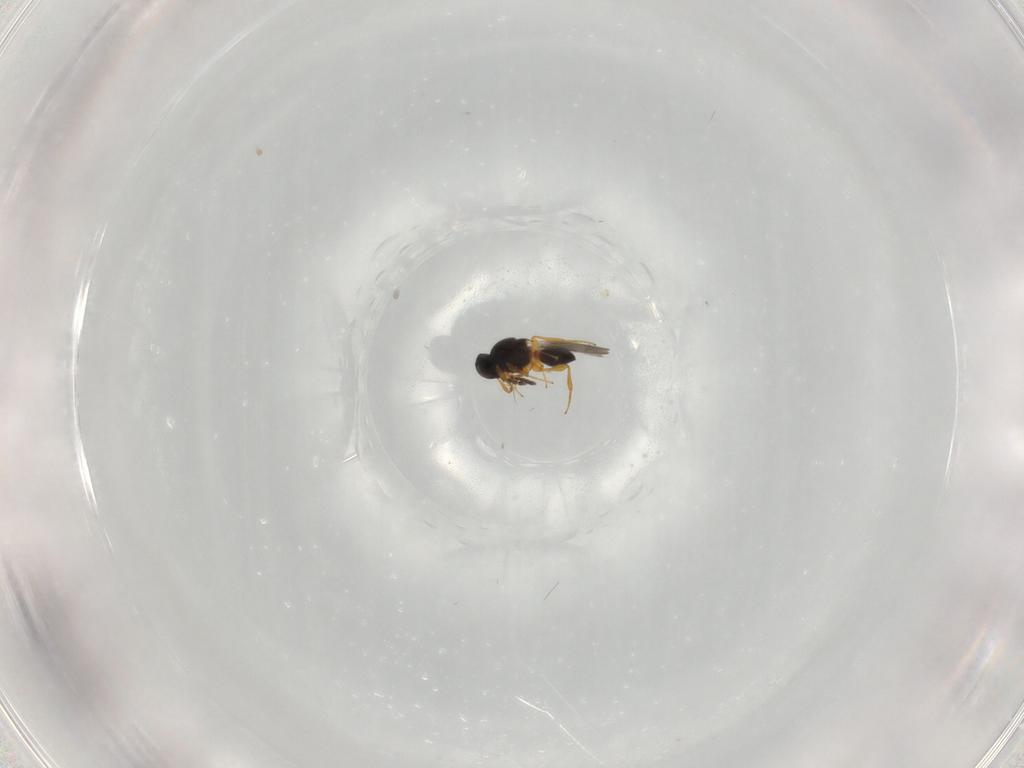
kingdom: Animalia
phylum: Arthropoda
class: Insecta
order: Hymenoptera
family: Platygastridae
